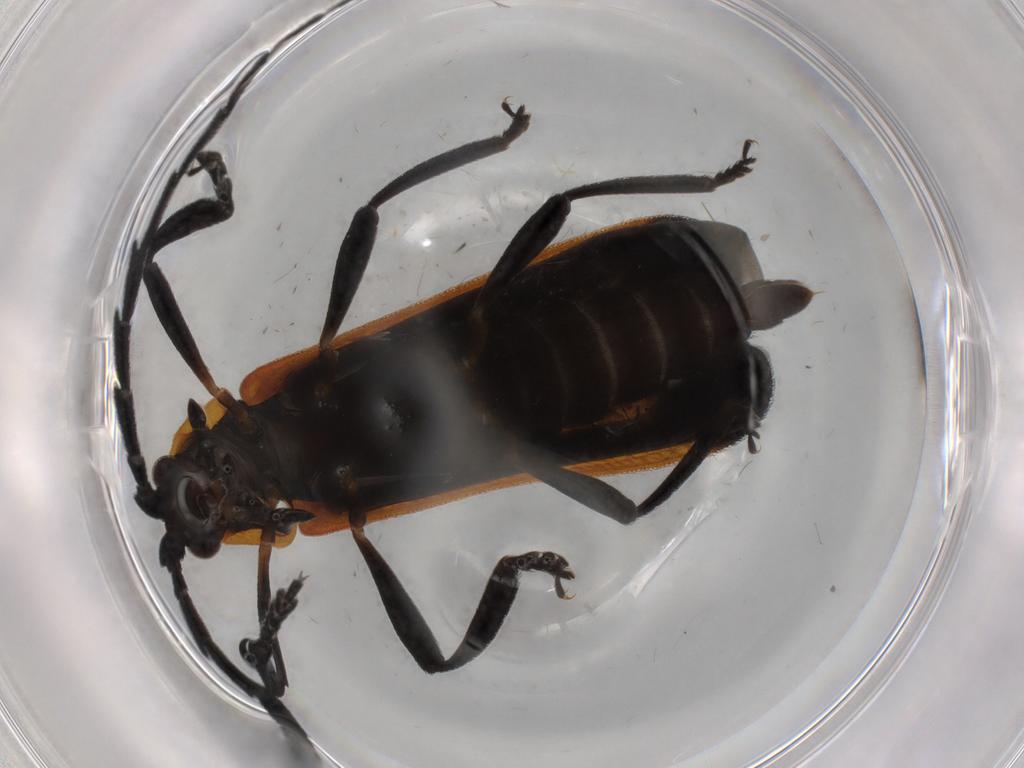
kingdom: Animalia
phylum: Arthropoda
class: Insecta
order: Coleoptera
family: Lycidae
